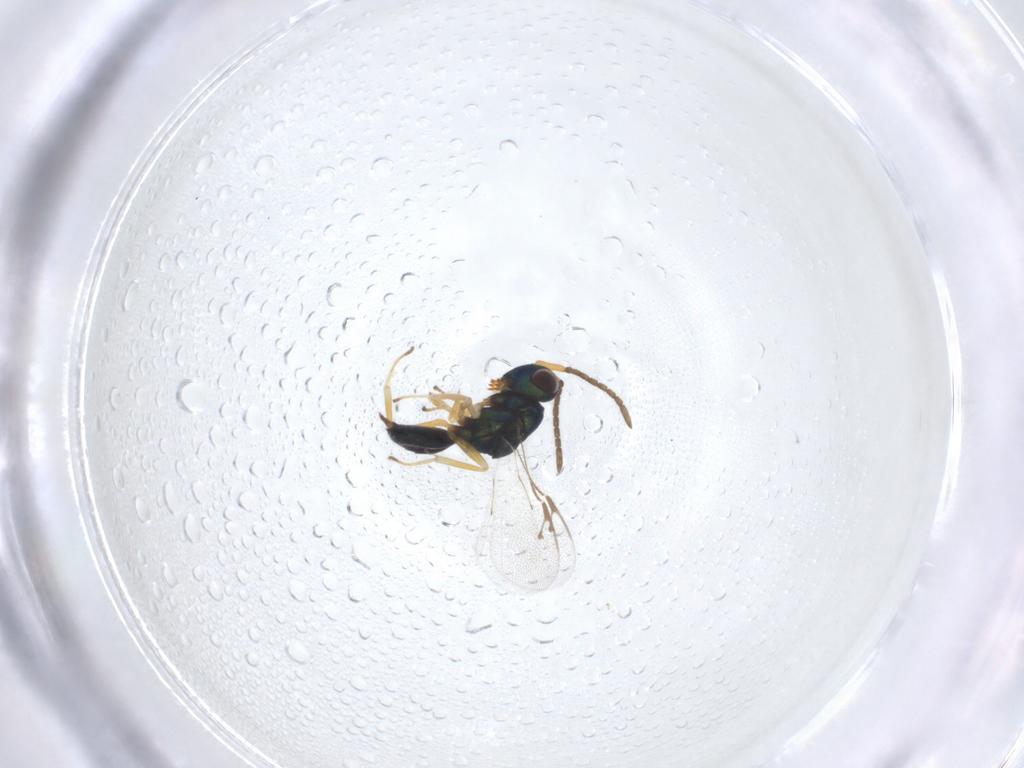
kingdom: Animalia
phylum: Arthropoda
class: Insecta
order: Hymenoptera
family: Pteromalidae
